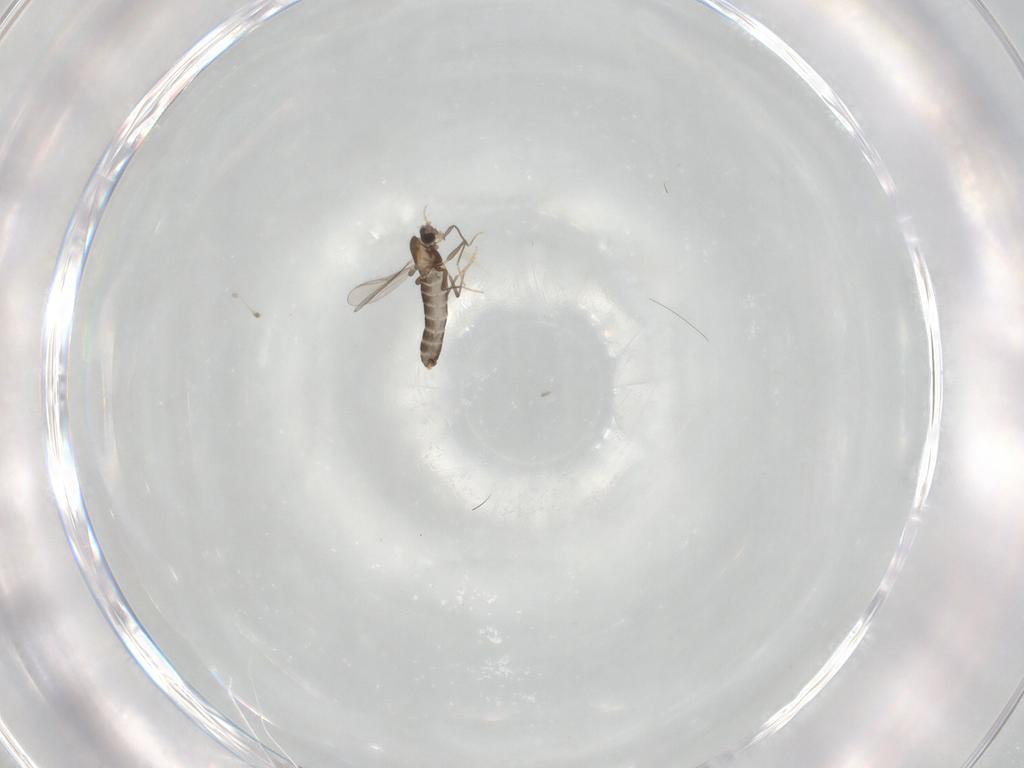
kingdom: Animalia
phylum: Arthropoda
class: Insecta
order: Diptera
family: Chironomidae
